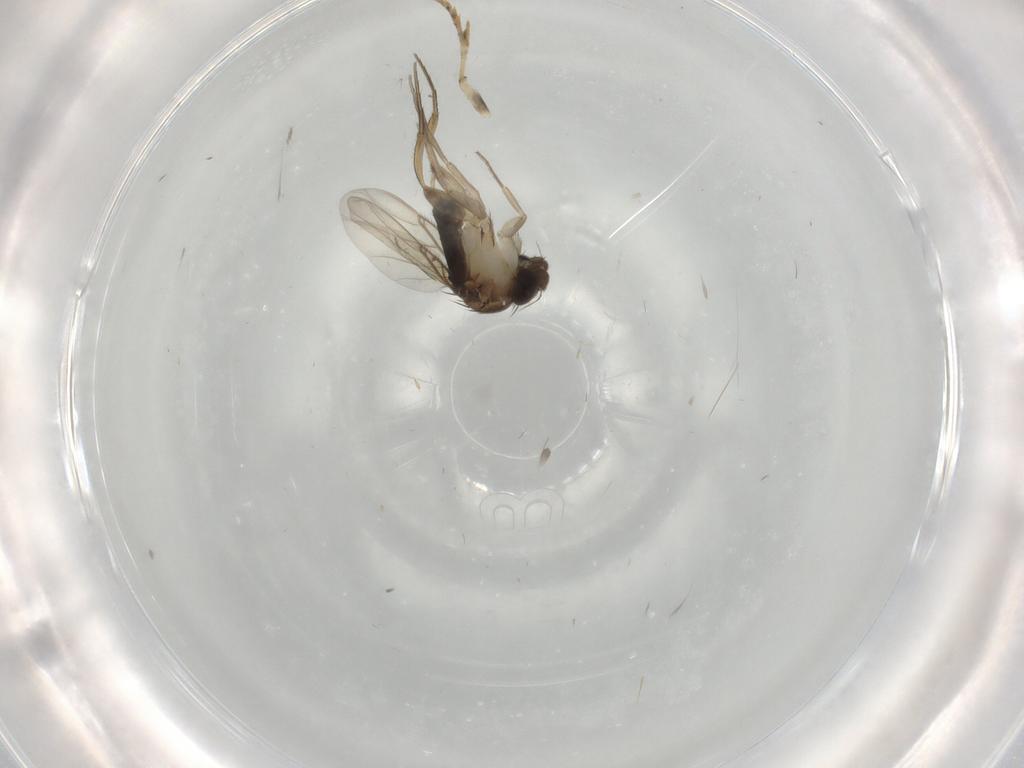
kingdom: Animalia
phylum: Arthropoda
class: Insecta
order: Diptera
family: Phoridae
